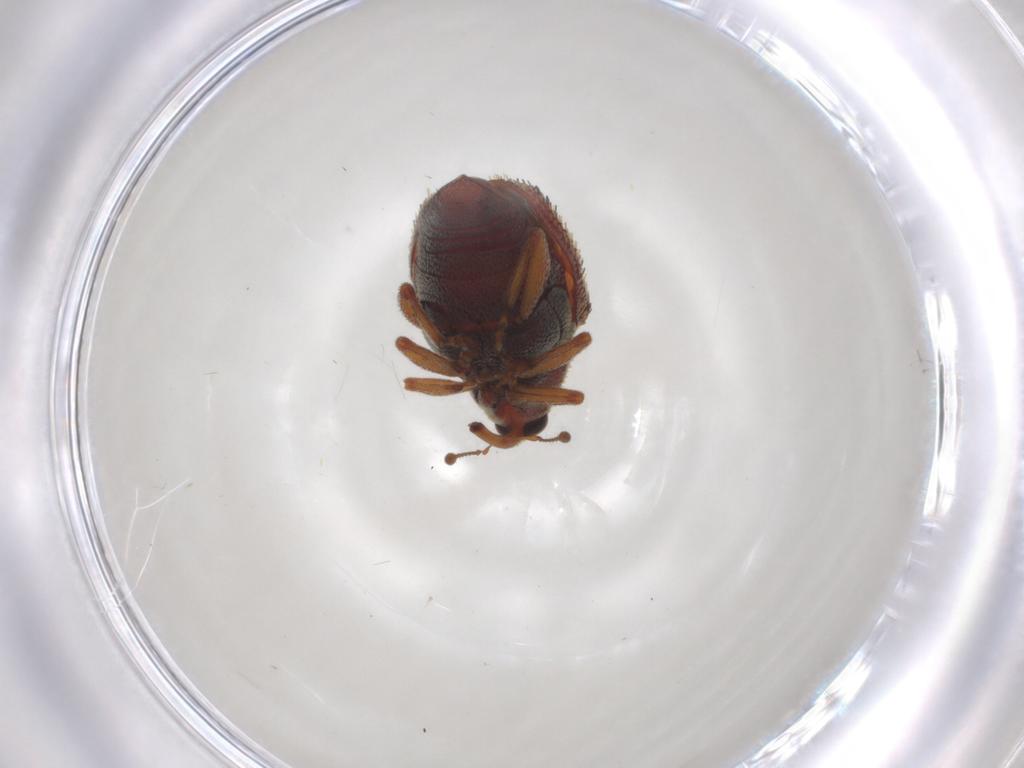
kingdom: Animalia
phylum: Arthropoda
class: Insecta
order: Coleoptera
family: Curculionidae
